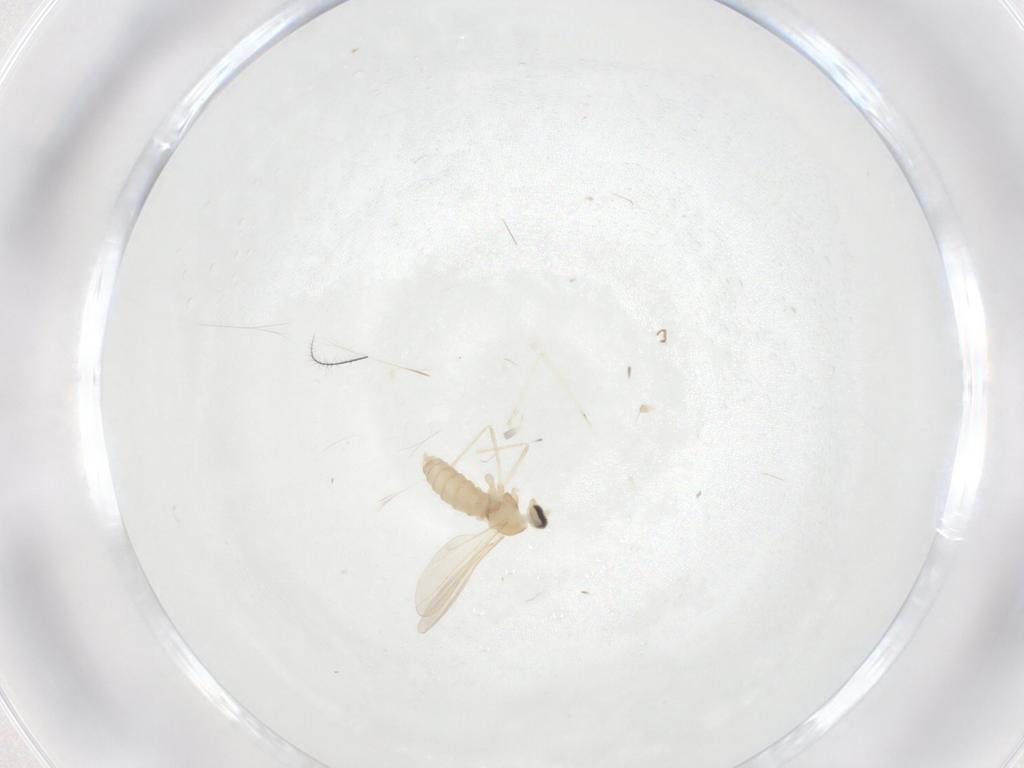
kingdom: Animalia
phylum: Arthropoda
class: Insecta
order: Diptera
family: Cecidomyiidae
